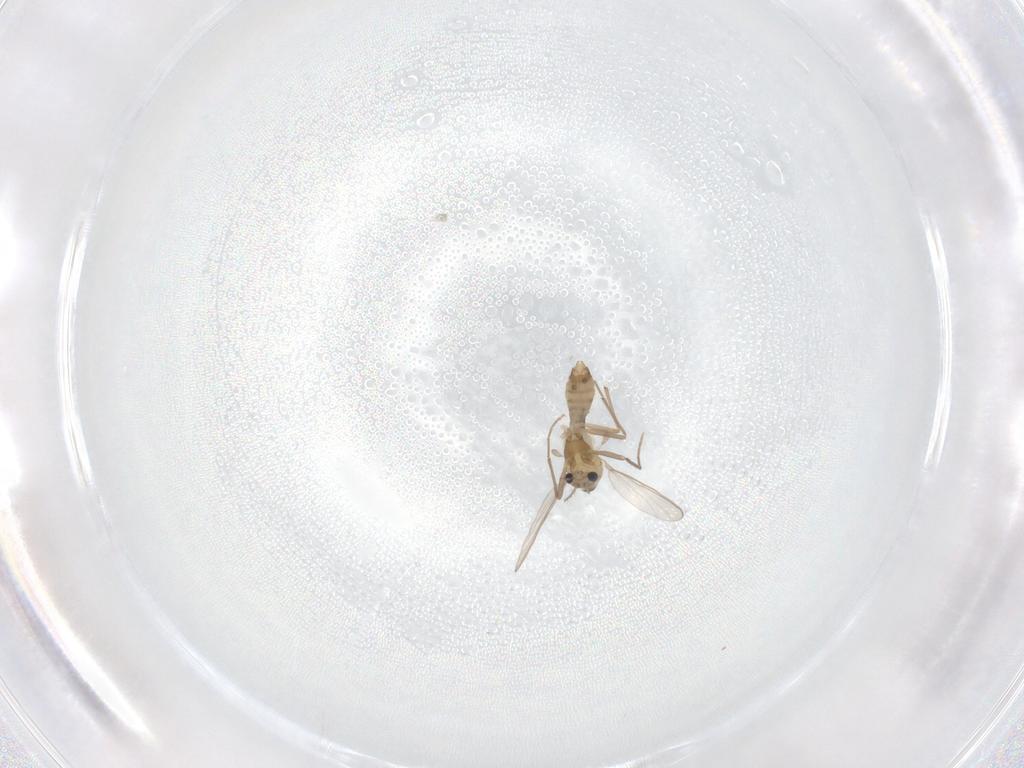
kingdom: Animalia
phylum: Arthropoda
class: Insecta
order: Diptera
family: Chironomidae
